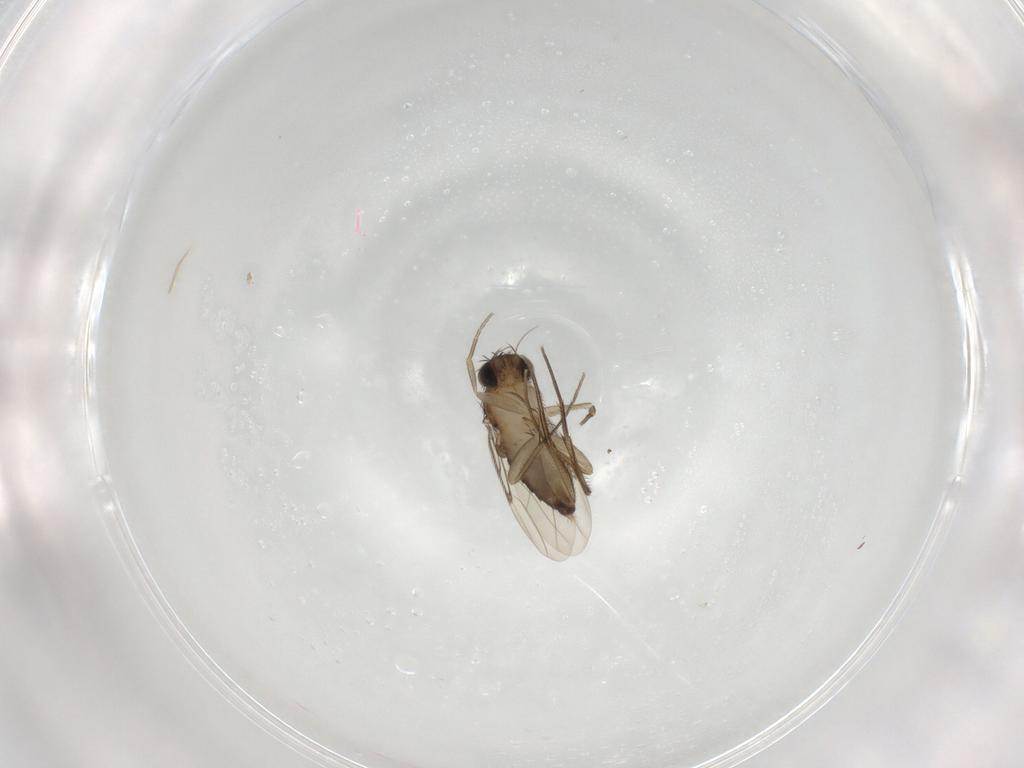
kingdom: Animalia
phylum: Arthropoda
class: Insecta
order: Diptera
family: Phoridae
